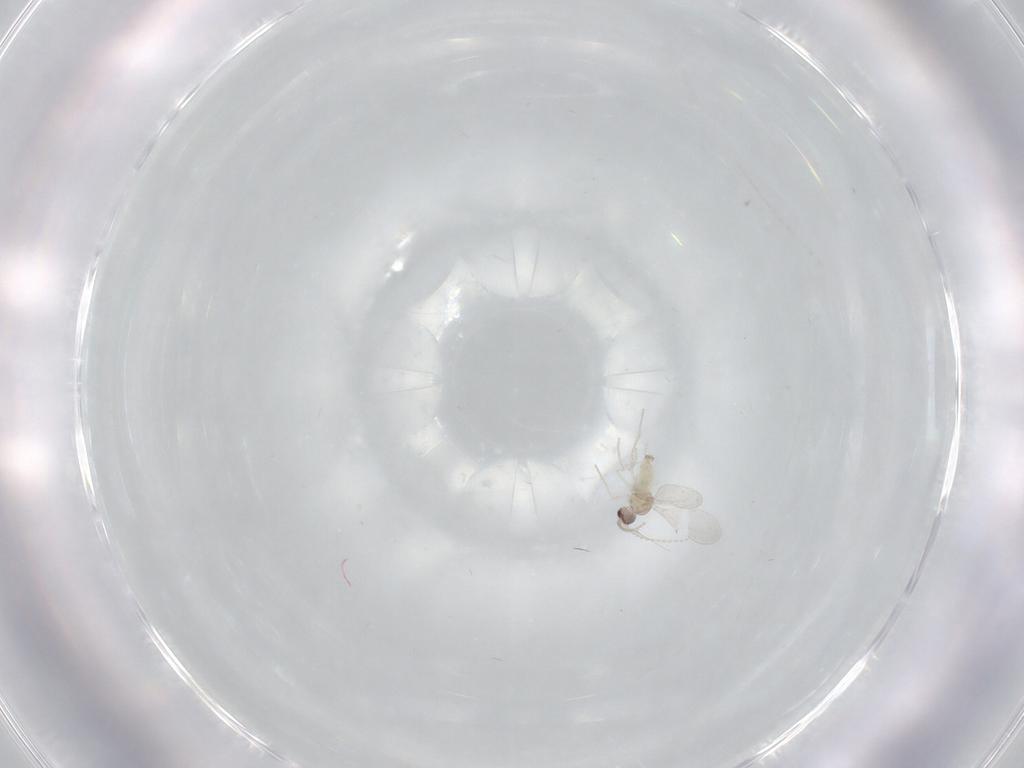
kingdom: Animalia
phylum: Arthropoda
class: Insecta
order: Diptera
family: Cecidomyiidae
